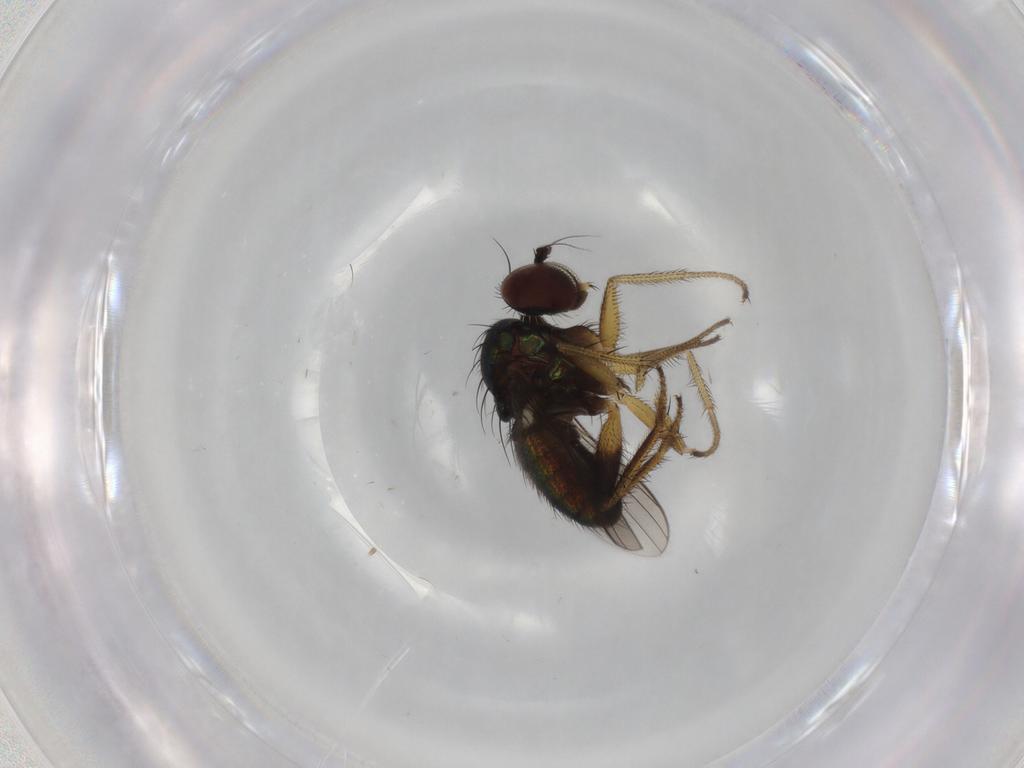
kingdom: Animalia
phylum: Arthropoda
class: Insecta
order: Diptera
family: Dolichopodidae
